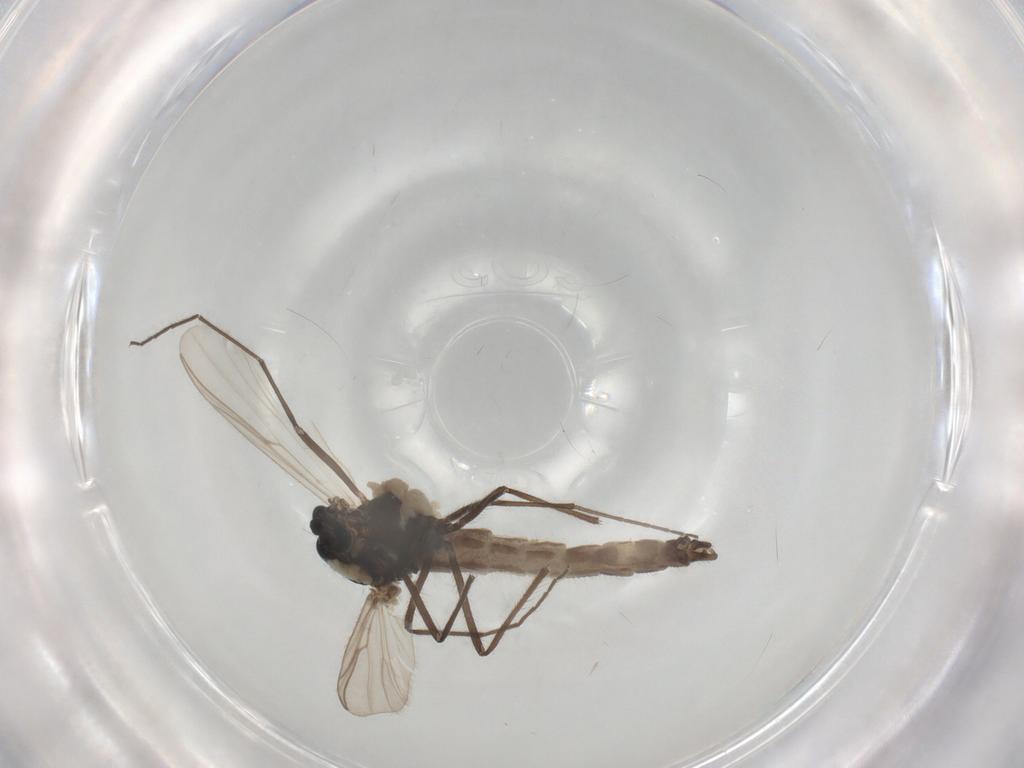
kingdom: Animalia
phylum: Arthropoda
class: Insecta
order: Diptera
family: Chironomidae
